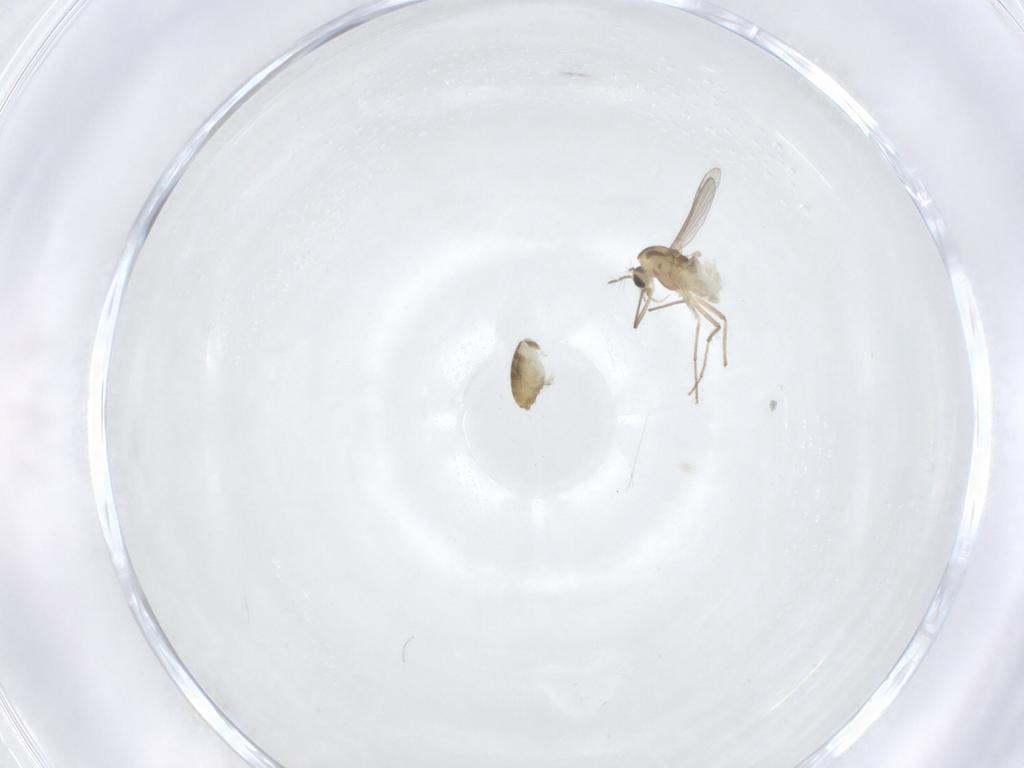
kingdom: Animalia
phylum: Arthropoda
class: Insecta
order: Diptera
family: Chironomidae
